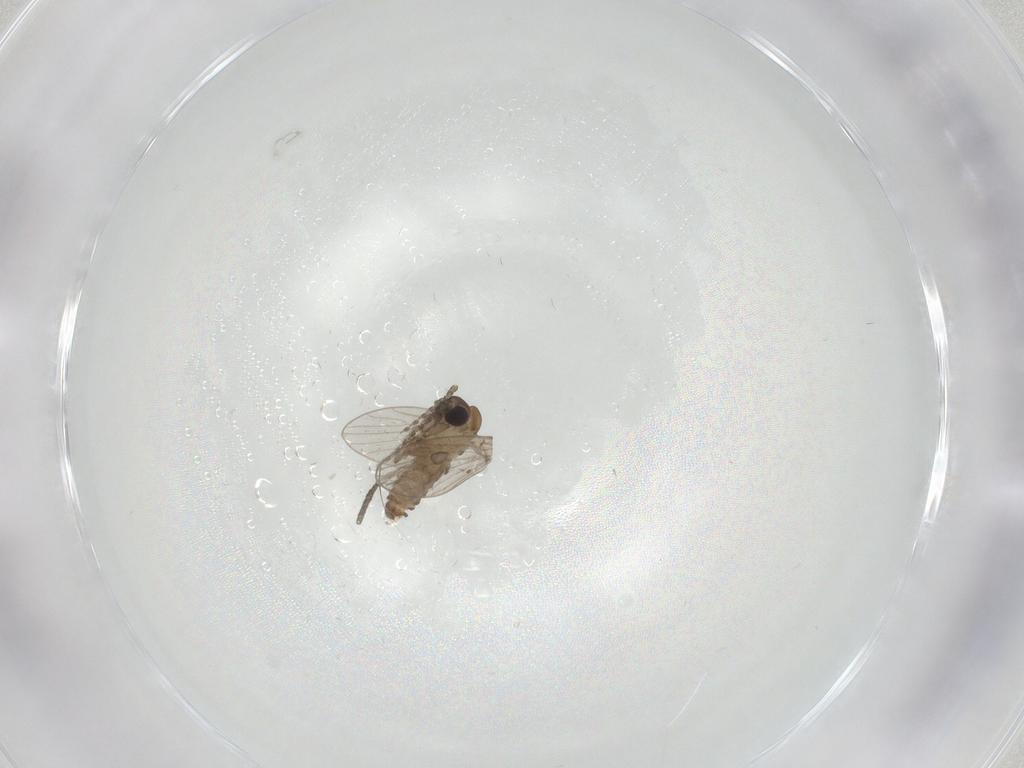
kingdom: Animalia
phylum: Arthropoda
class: Insecta
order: Diptera
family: Psychodidae
